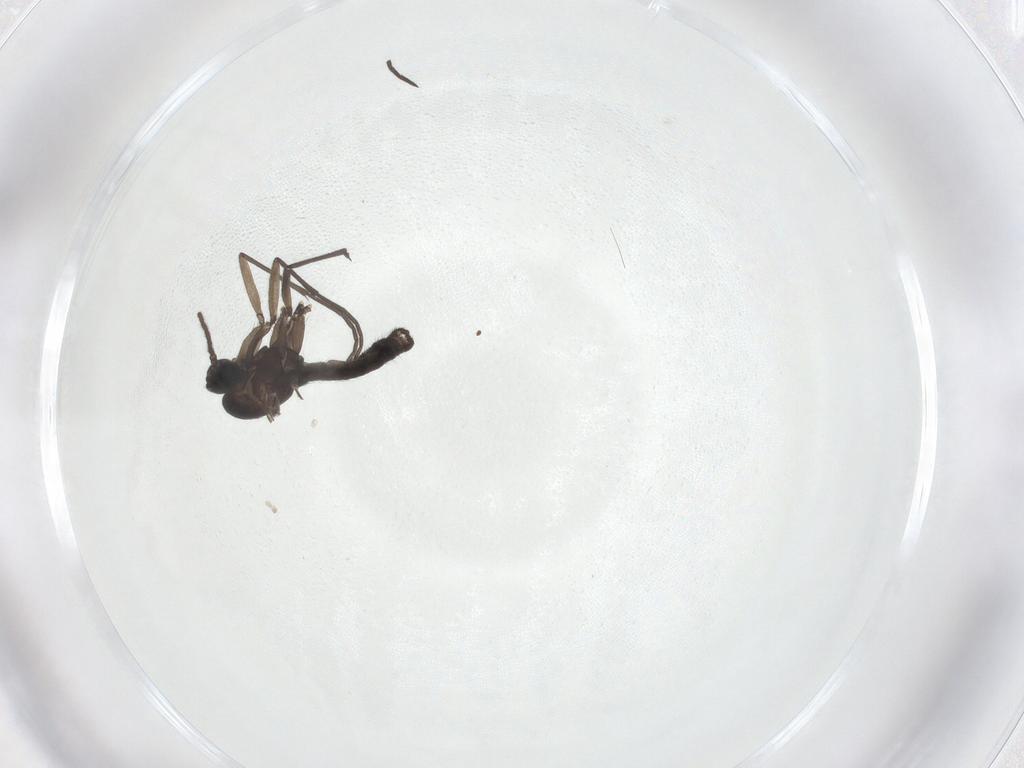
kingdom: Animalia
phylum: Arthropoda
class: Insecta
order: Diptera
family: Sciaridae
